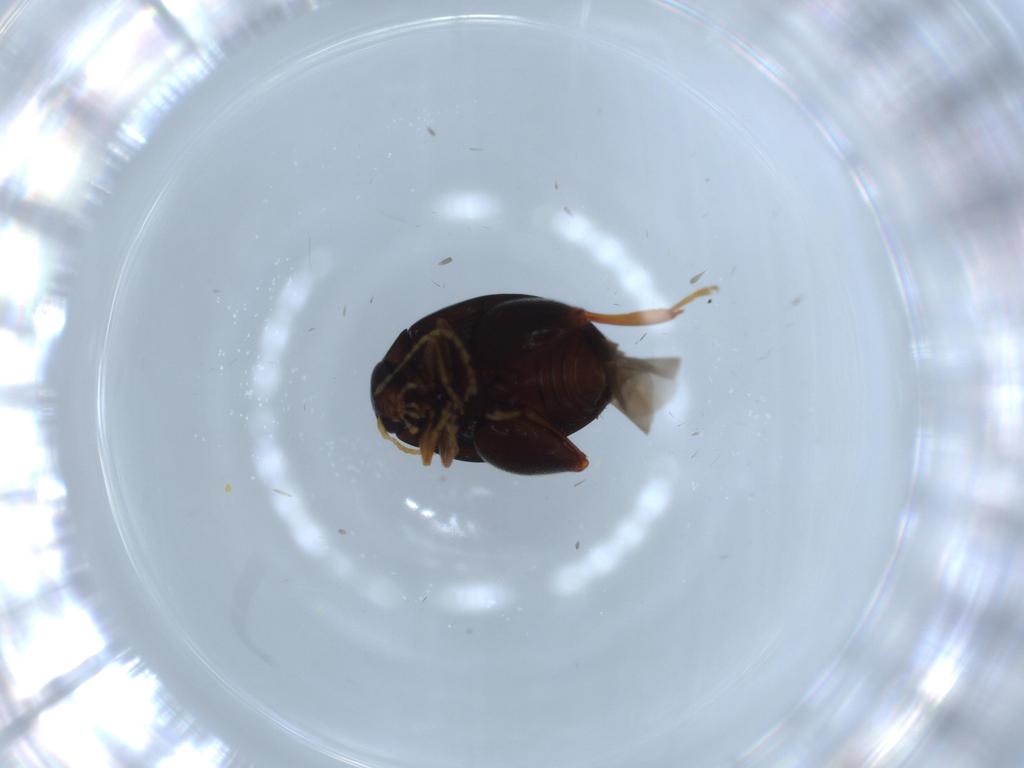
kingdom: Animalia
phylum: Arthropoda
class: Insecta
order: Coleoptera
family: Chrysomelidae
